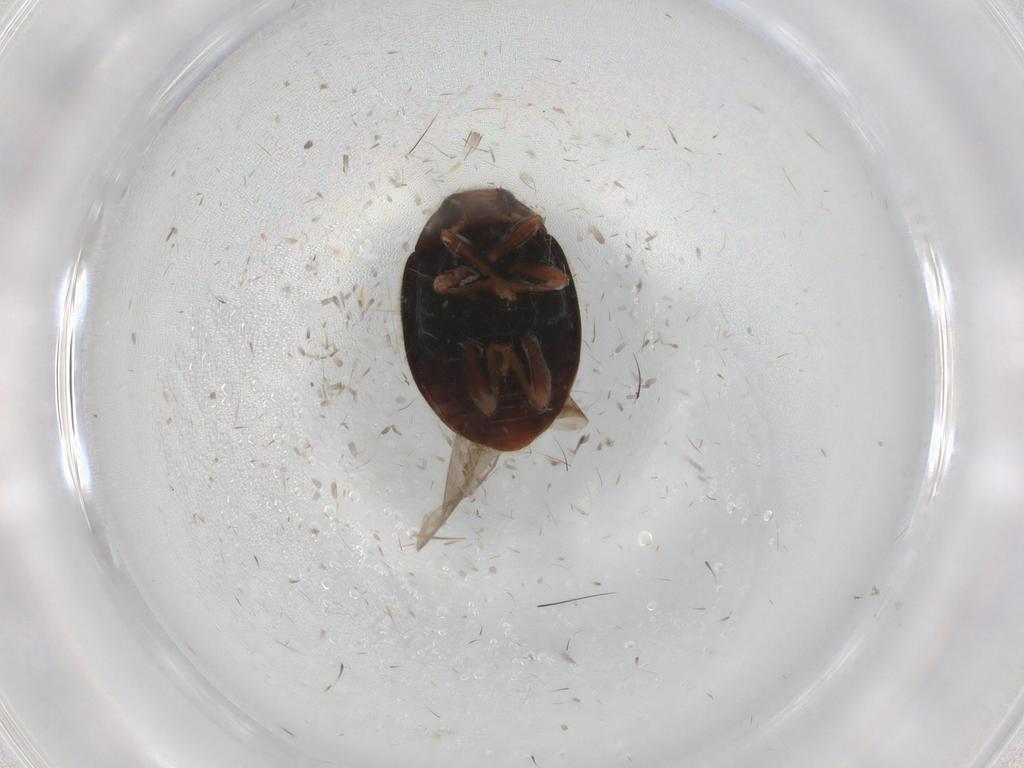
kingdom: Animalia
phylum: Arthropoda
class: Insecta
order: Coleoptera
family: Coccinellidae
